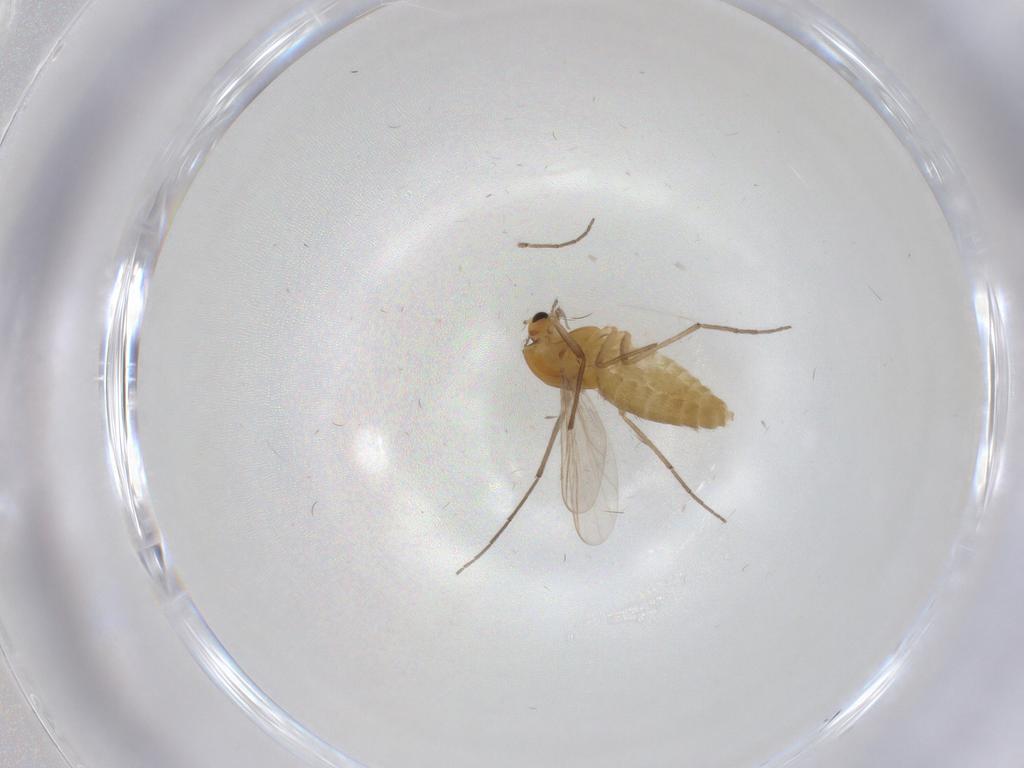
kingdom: Animalia
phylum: Arthropoda
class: Insecta
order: Diptera
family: Chironomidae
